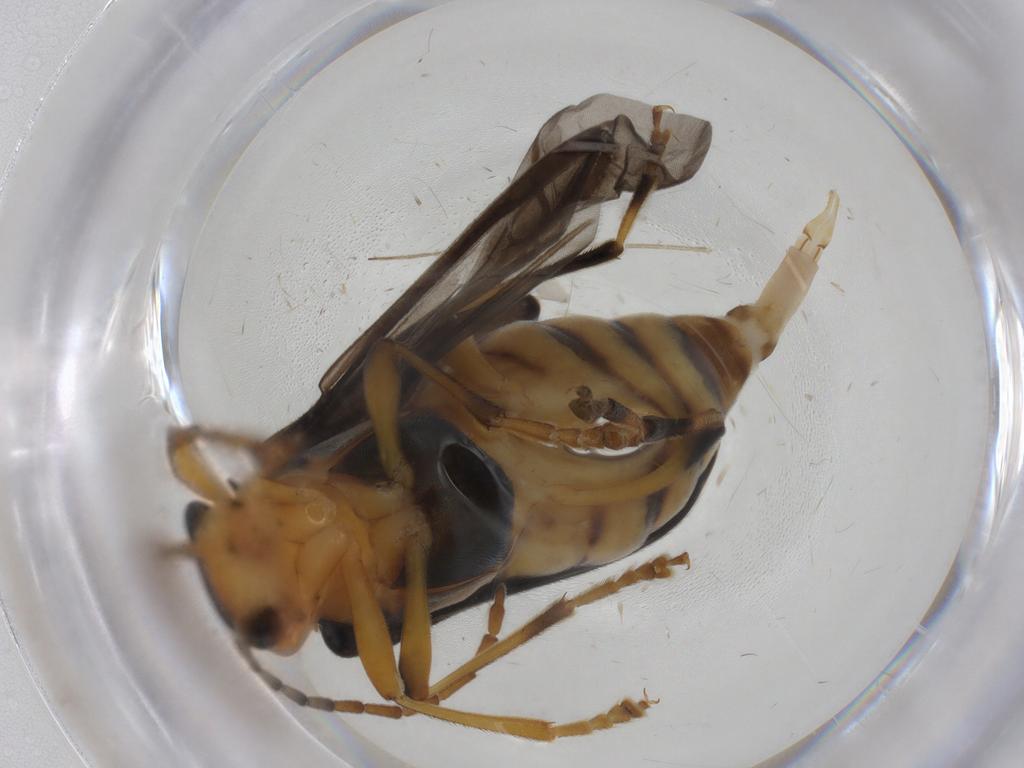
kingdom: Animalia
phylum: Arthropoda
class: Insecta
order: Coleoptera
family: Oedemeridae
